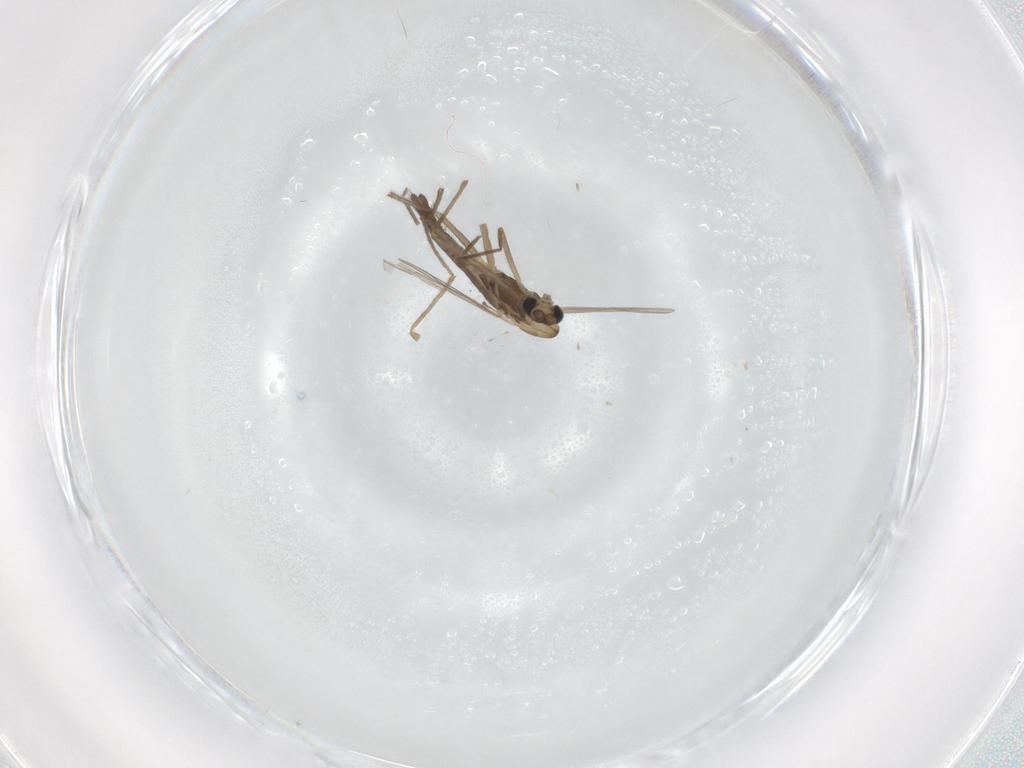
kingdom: Animalia
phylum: Arthropoda
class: Insecta
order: Diptera
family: Chironomidae
